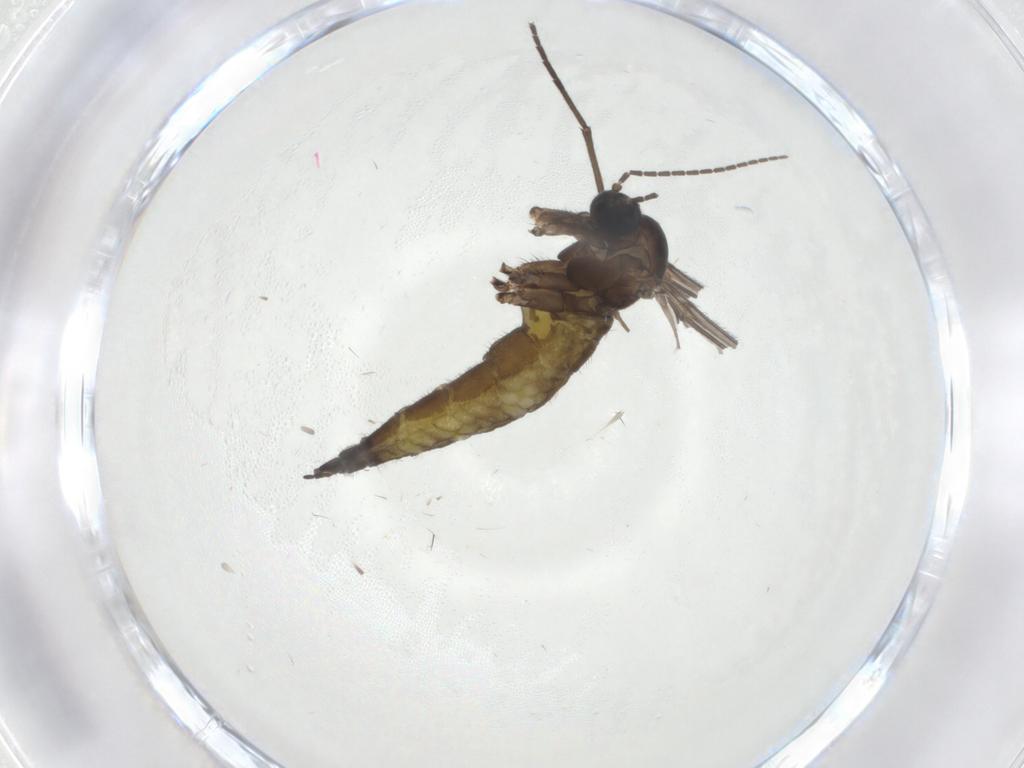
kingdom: Animalia
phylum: Arthropoda
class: Insecta
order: Diptera
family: Sciaridae
